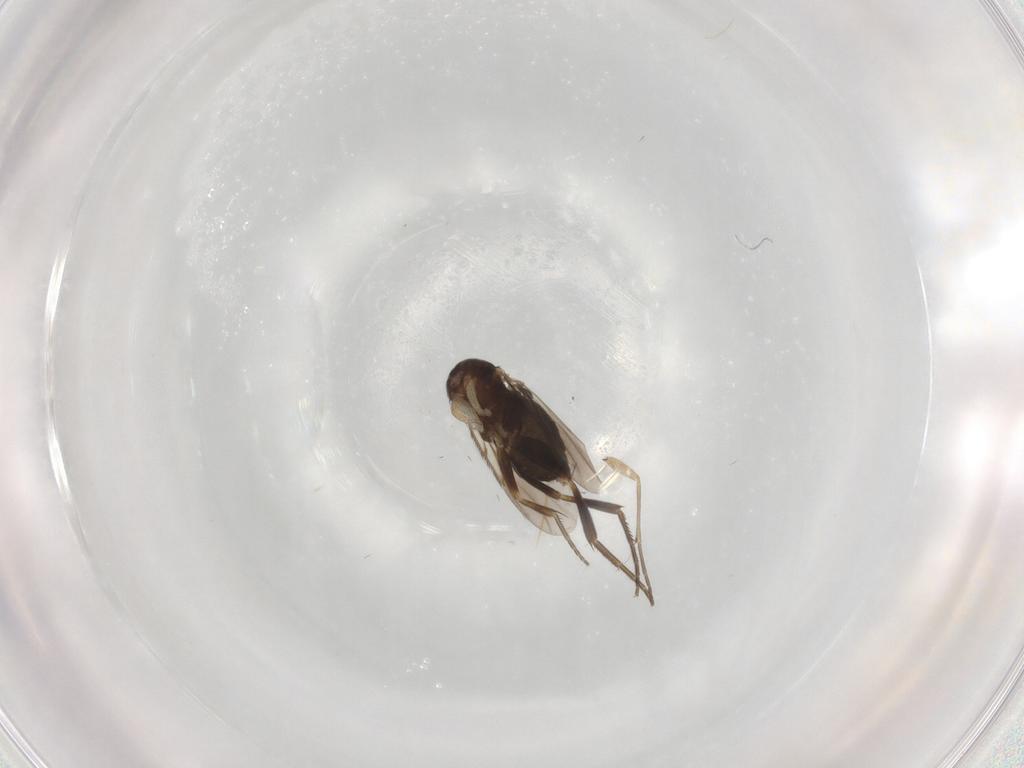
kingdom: Animalia
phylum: Arthropoda
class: Insecta
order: Diptera
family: Phoridae
